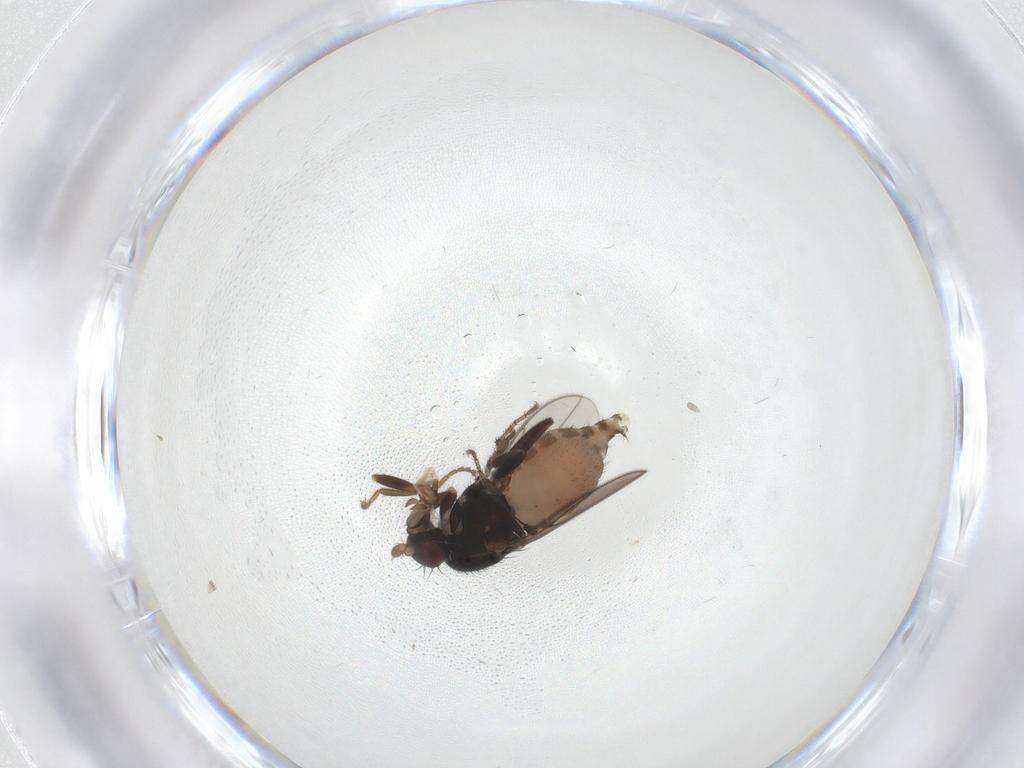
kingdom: Animalia
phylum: Arthropoda
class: Insecta
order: Diptera
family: Sphaeroceridae
